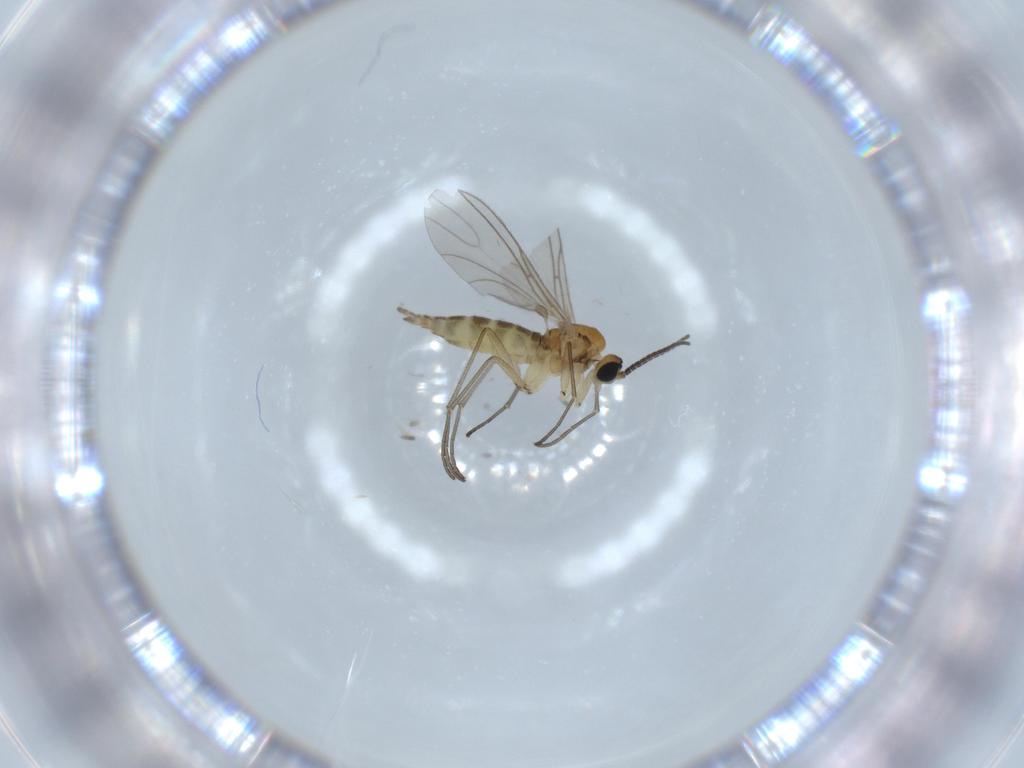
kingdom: Animalia
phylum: Arthropoda
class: Insecta
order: Diptera
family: Sciaridae
